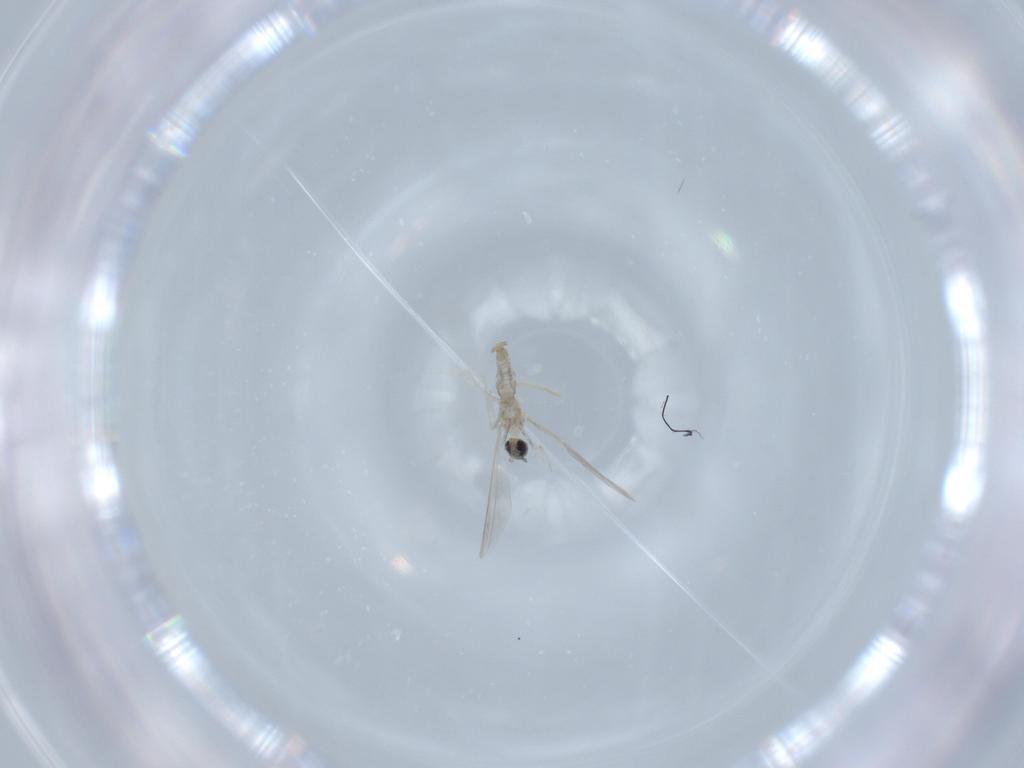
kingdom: Animalia
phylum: Arthropoda
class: Insecta
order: Diptera
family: Cecidomyiidae
